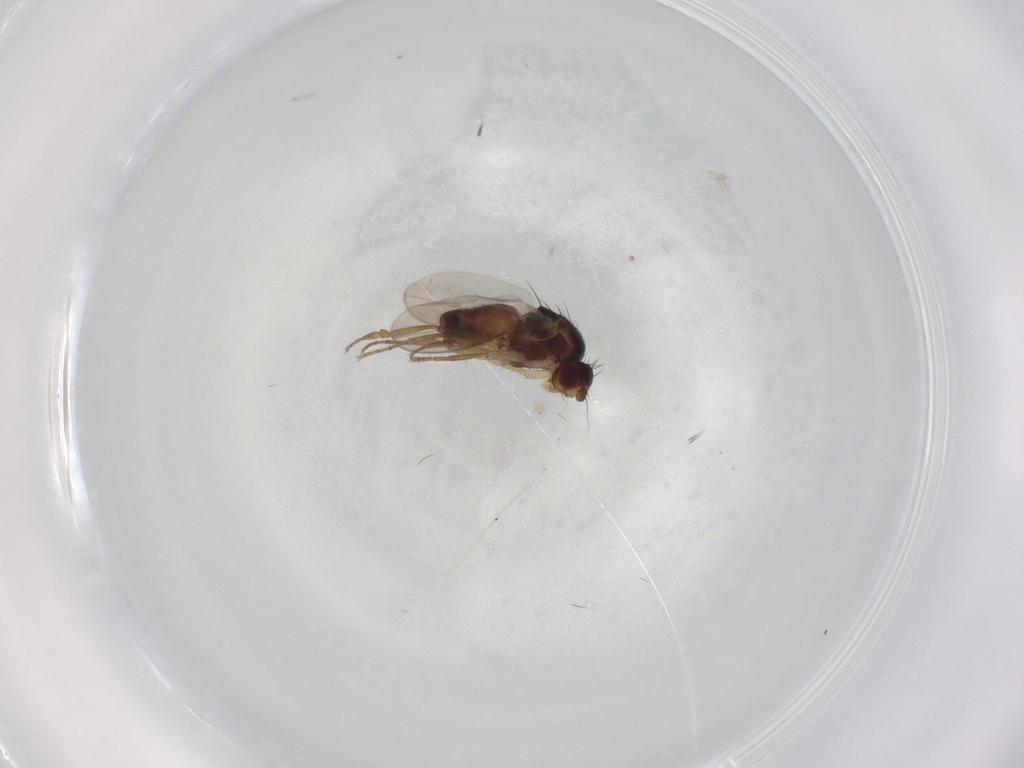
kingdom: Animalia
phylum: Arthropoda
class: Insecta
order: Diptera
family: Sphaeroceridae
